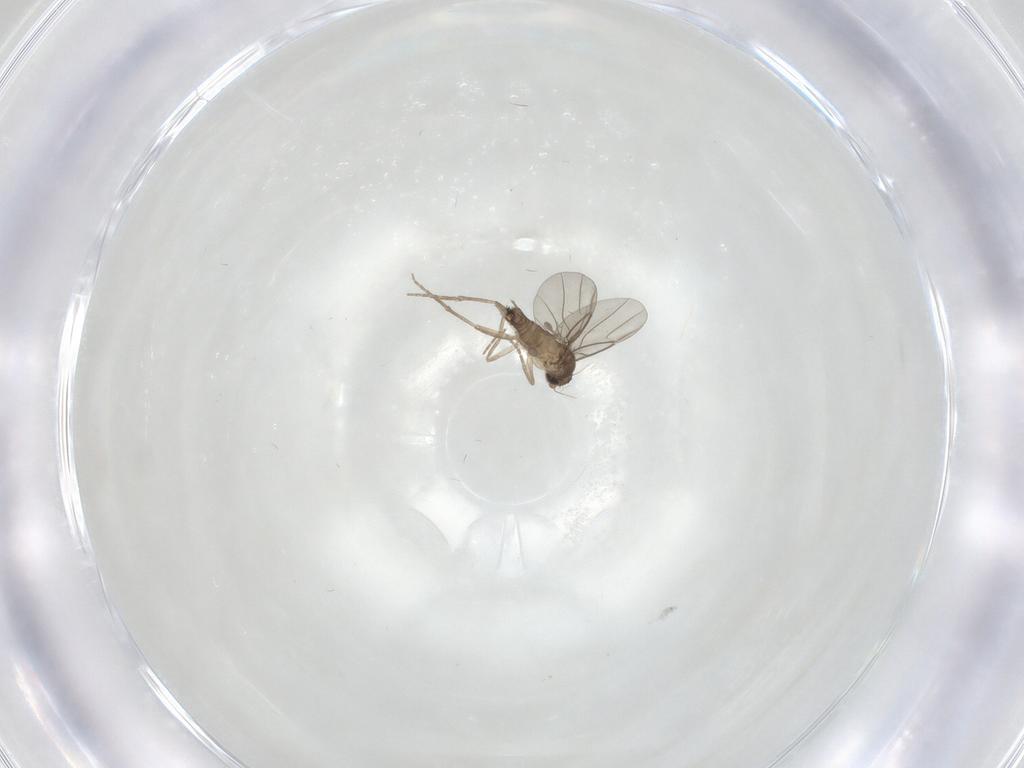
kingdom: Animalia
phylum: Arthropoda
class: Insecta
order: Diptera
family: Phoridae
